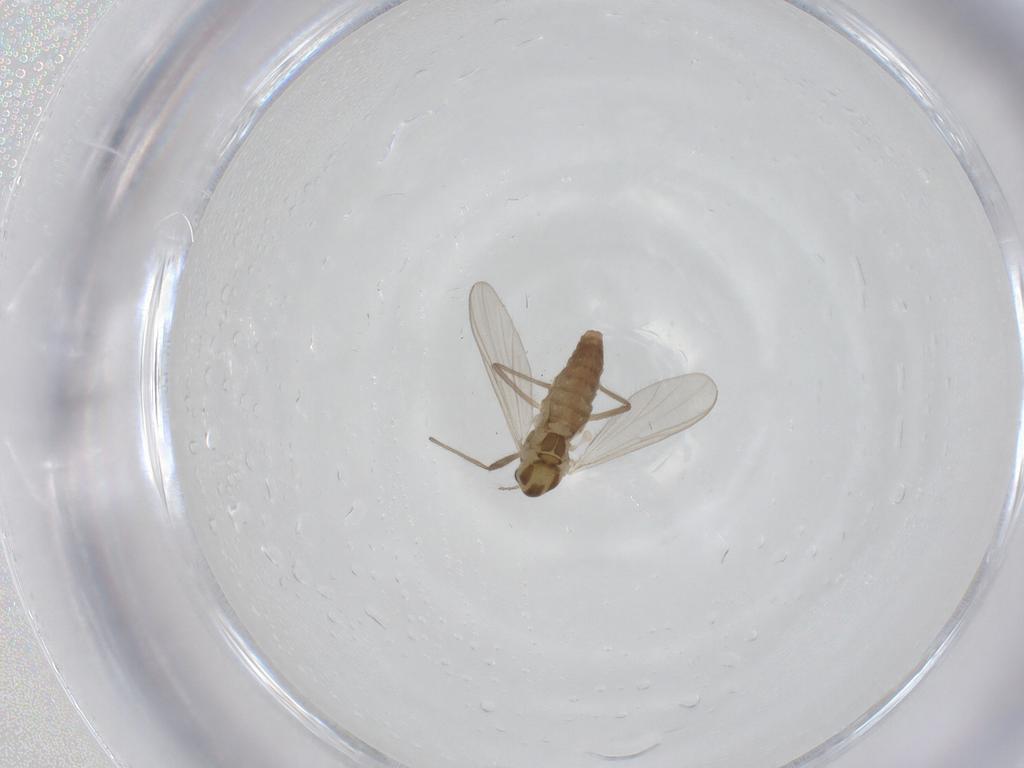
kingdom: Animalia
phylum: Arthropoda
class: Insecta
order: Diptera
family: Chironomidae
